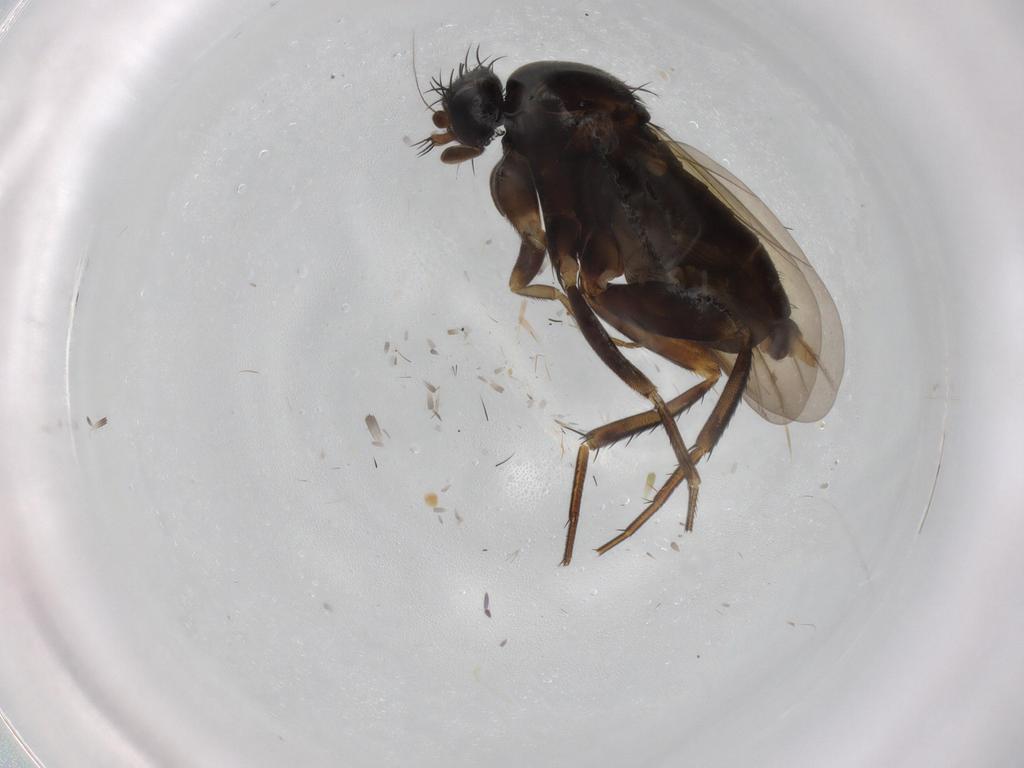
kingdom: Animalia
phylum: Arthropoda
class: Insecta
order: Diptera
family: Phoridae
